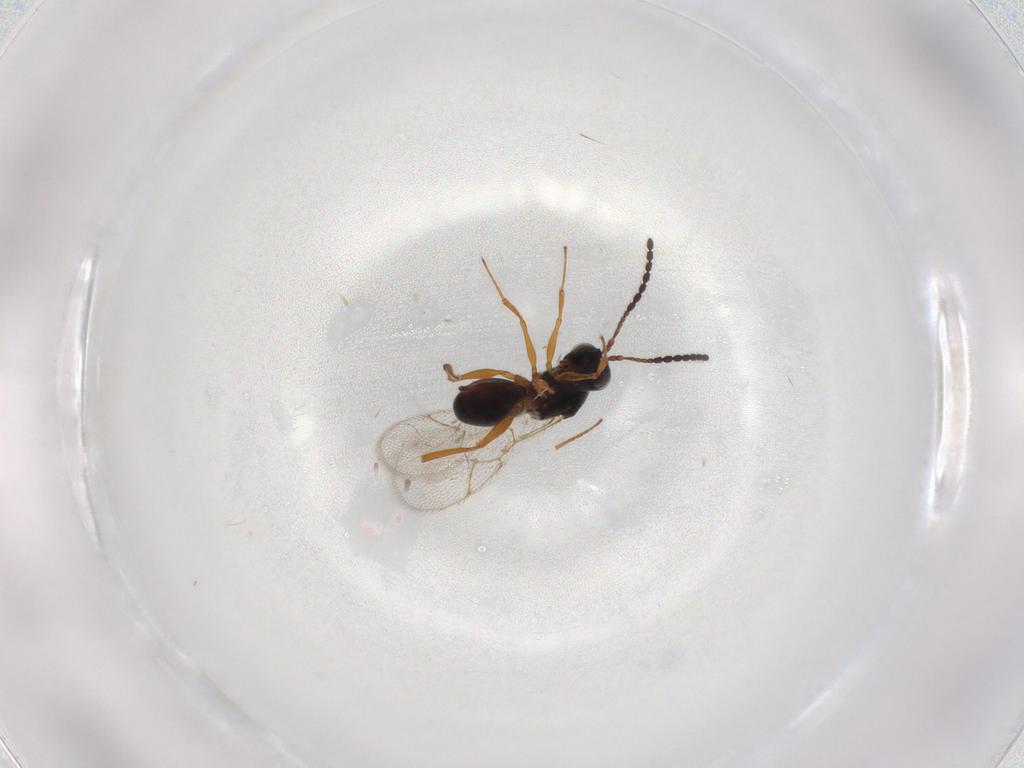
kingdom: Animalia
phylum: Arthropoda
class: Insecta
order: Hymenoptera
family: Figitidae
